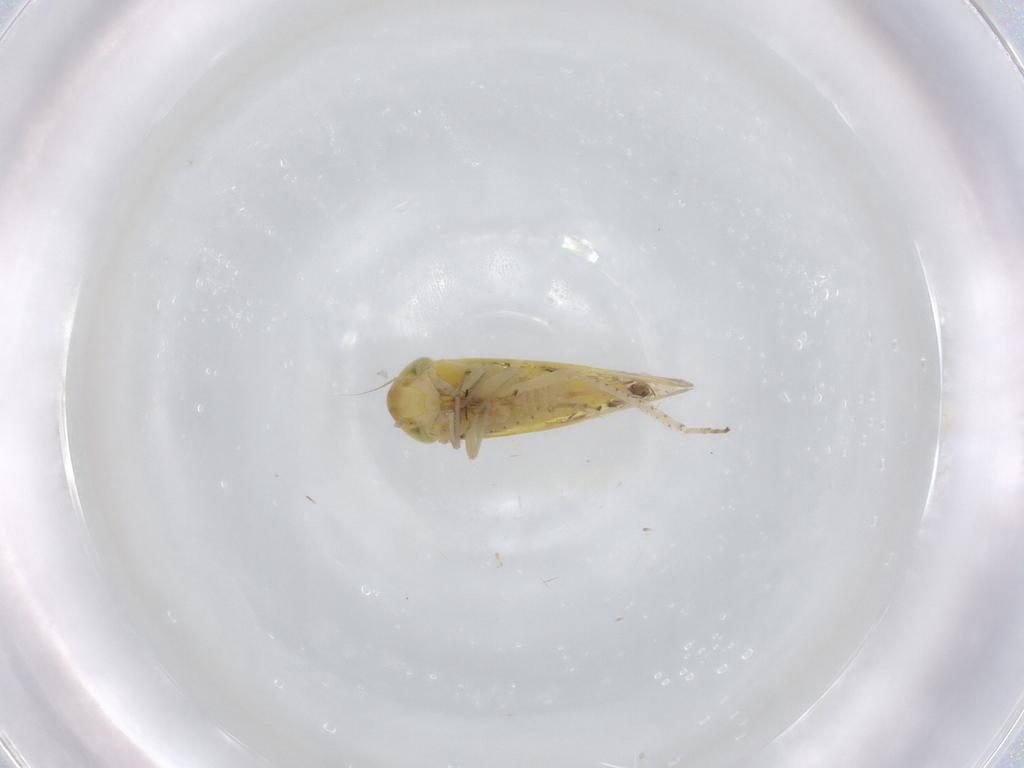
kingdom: Animalia
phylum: Arthropoda
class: Insecta
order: Hemiptera
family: Cicadellidae
